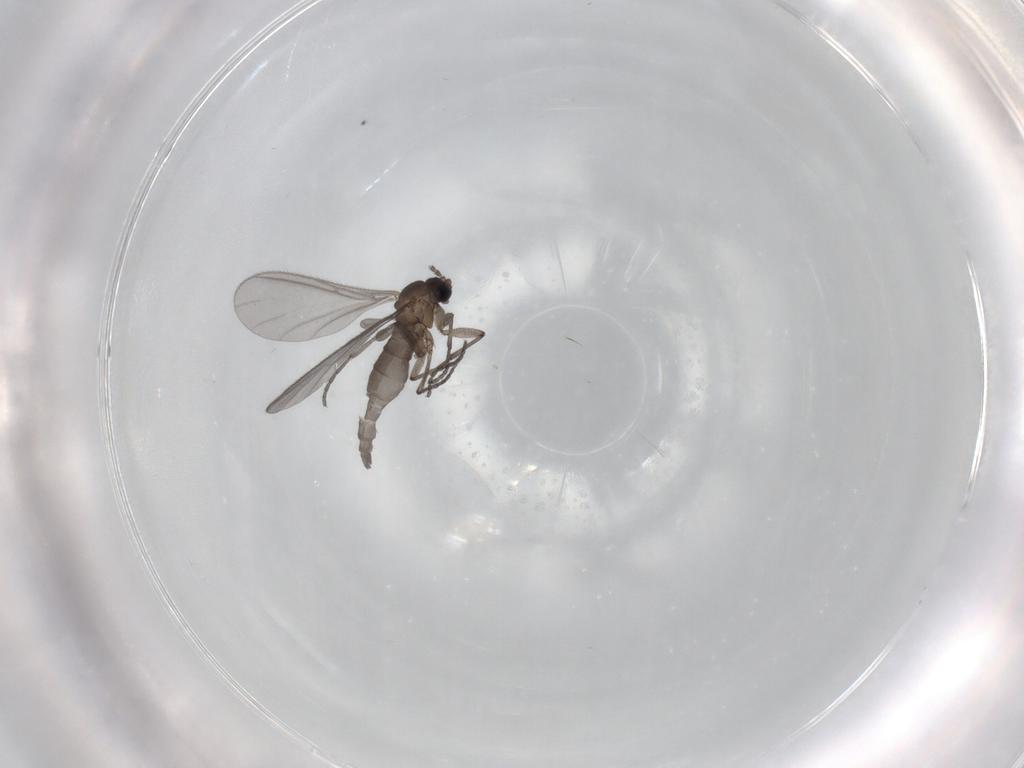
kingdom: Animalia
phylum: Arthropoda
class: Insecta
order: Diptera
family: Sciaridae
